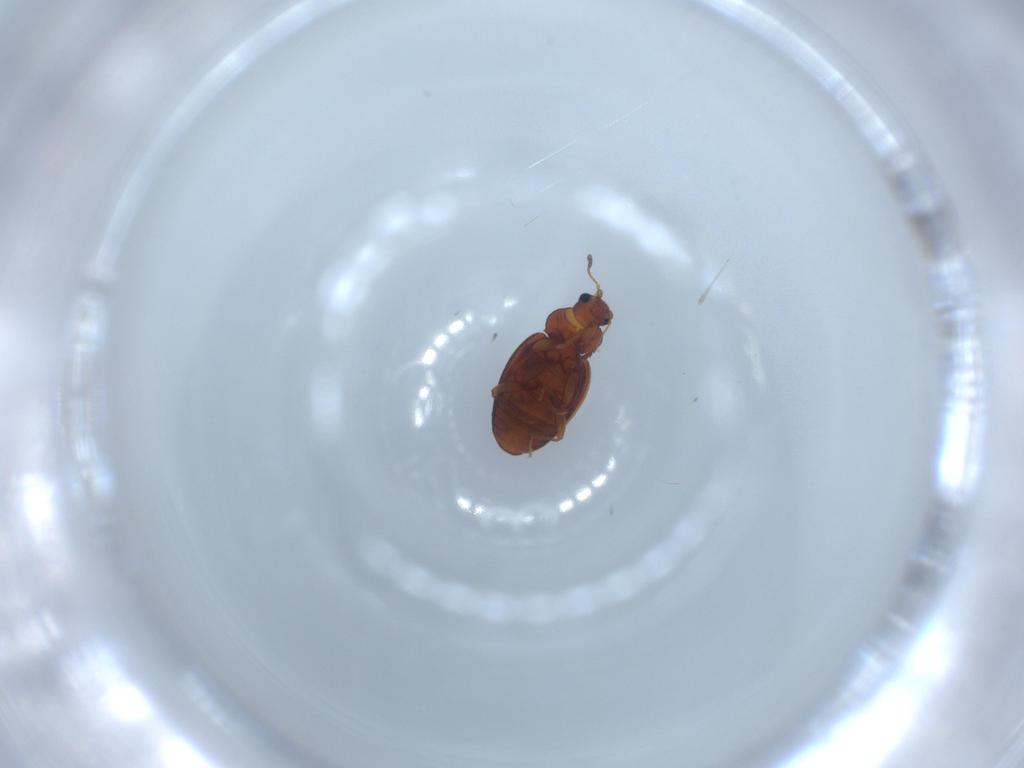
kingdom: Animalia
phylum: Arthropoda
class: Insecta
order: Coleoptera
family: Latridiidae
